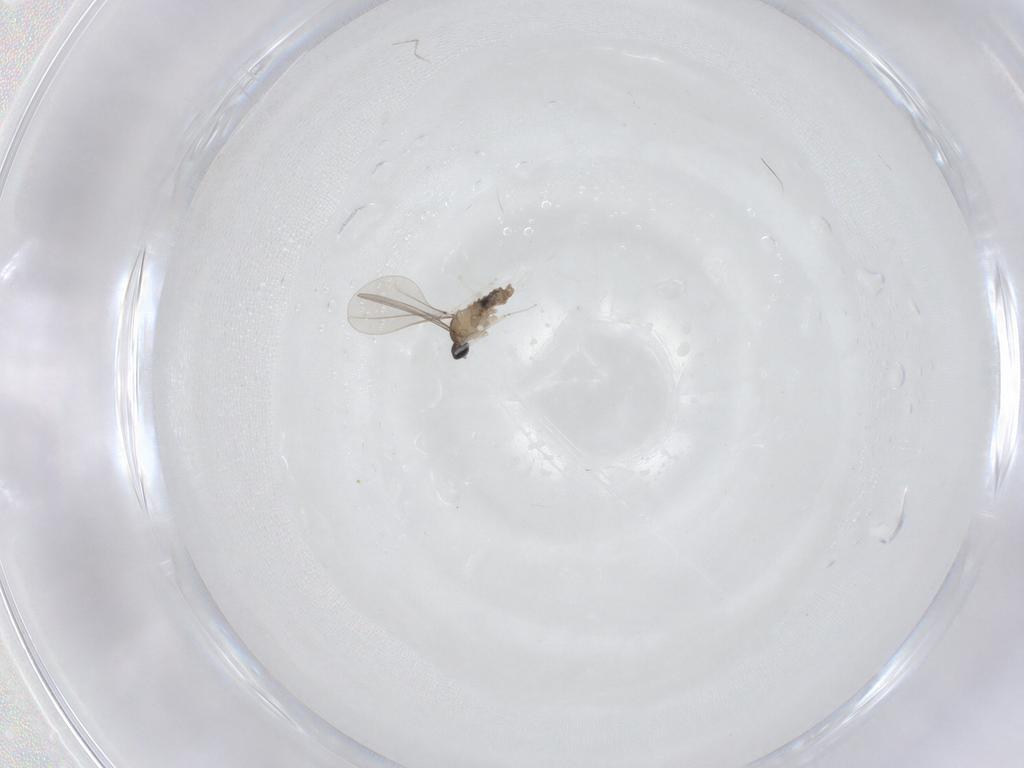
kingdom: Animalia
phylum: Arthropoda
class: Insecta
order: Diptera
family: Cecidomyiidae
